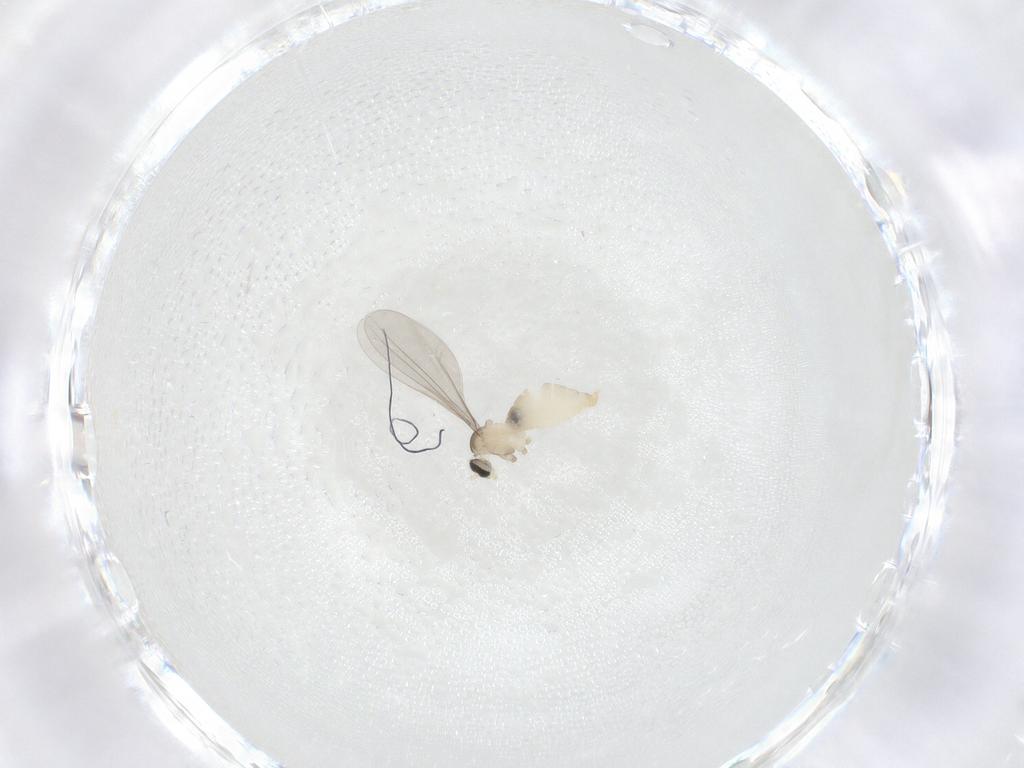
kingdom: Animalia
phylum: Arthropoda
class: Insecta
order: Diptera
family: Cecidomyiidae
